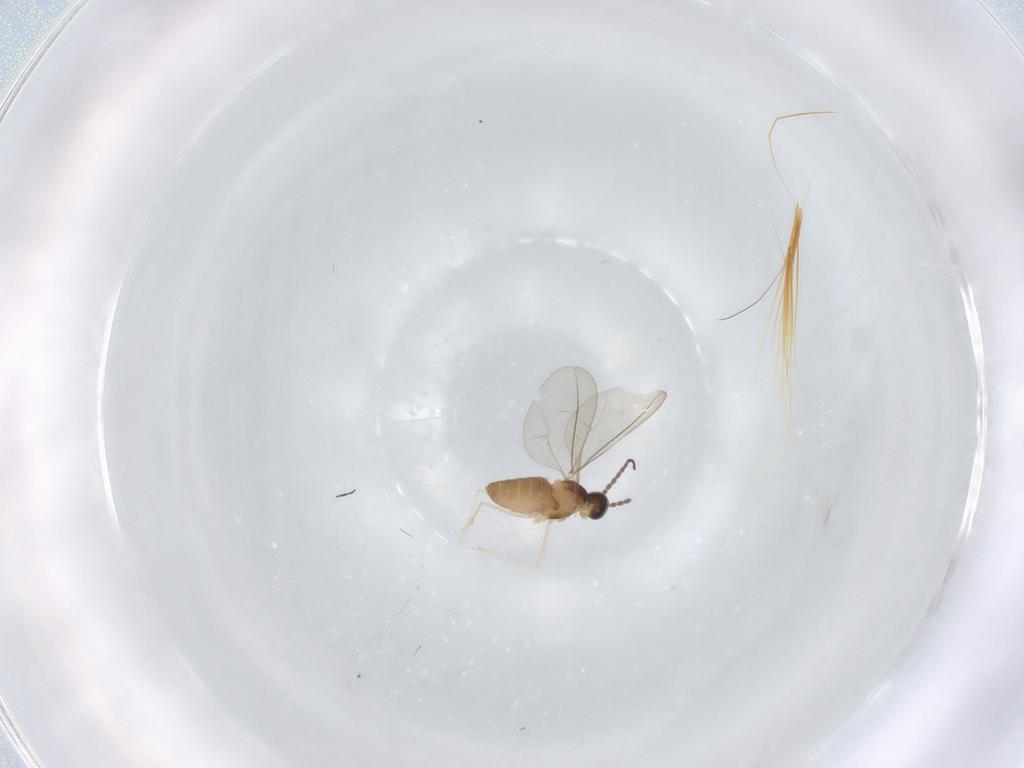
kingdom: Animalia
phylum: Arthropoda
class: Insecta
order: Diptera
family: Cecidomyiidae
